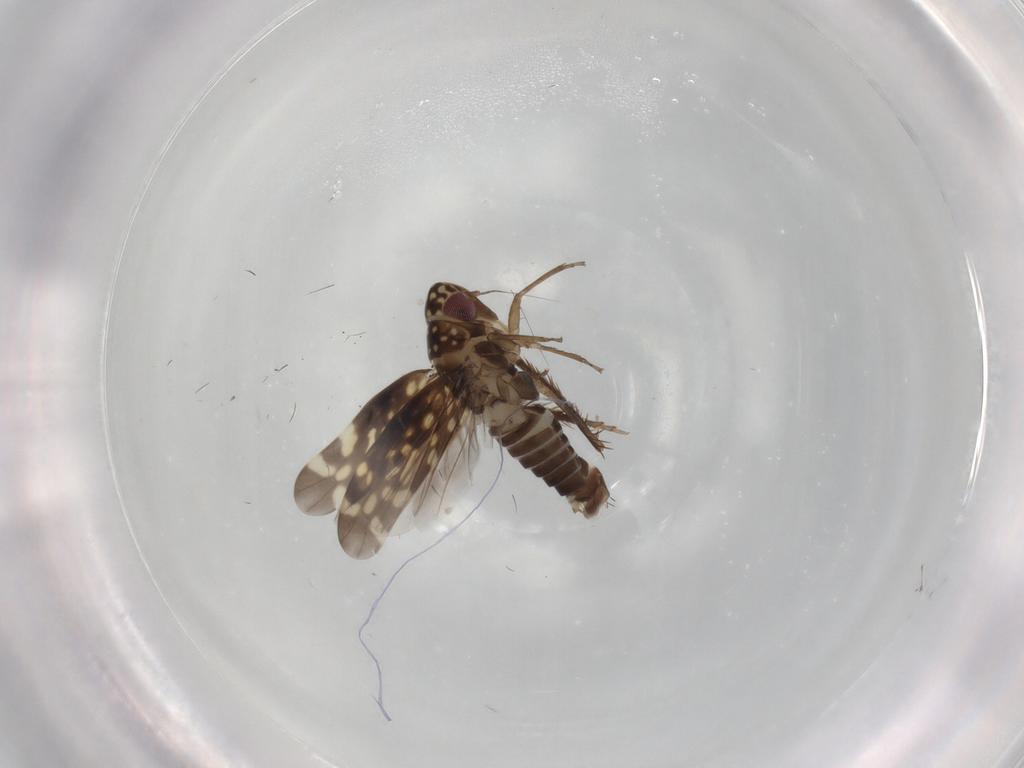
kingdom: Animalia
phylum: Arthropoda
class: Insecta
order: Hemiptera
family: Cicadellidae
